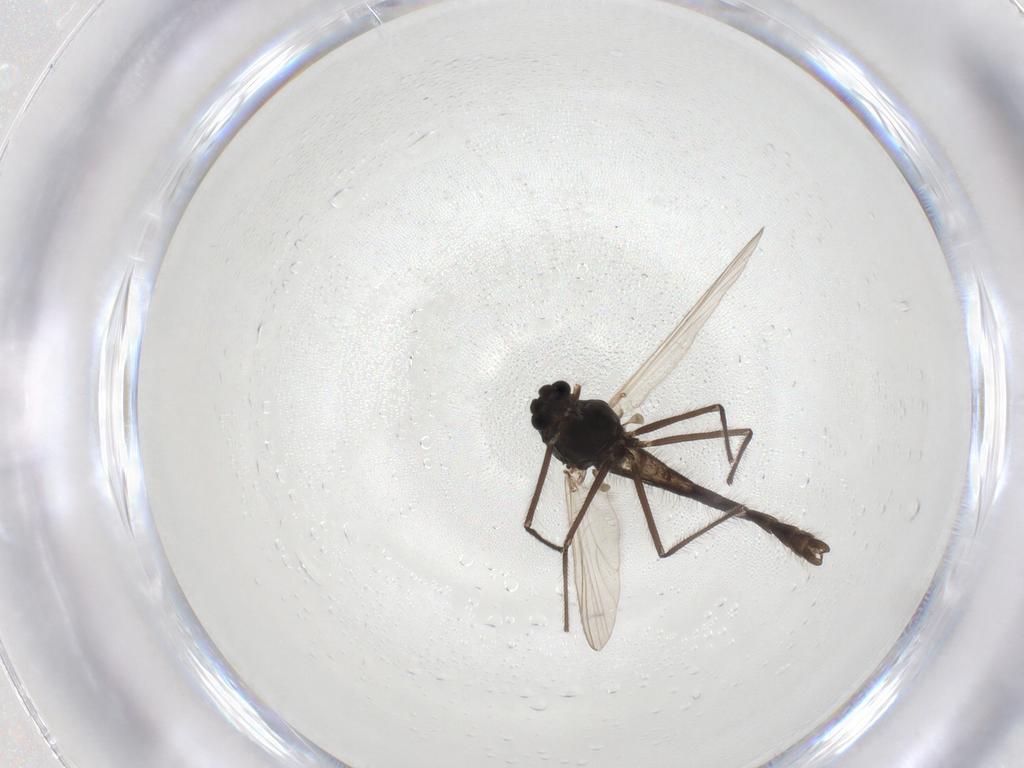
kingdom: Animalia
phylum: Arthropoda
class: Insecta
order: Diptera
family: Chironomidae
